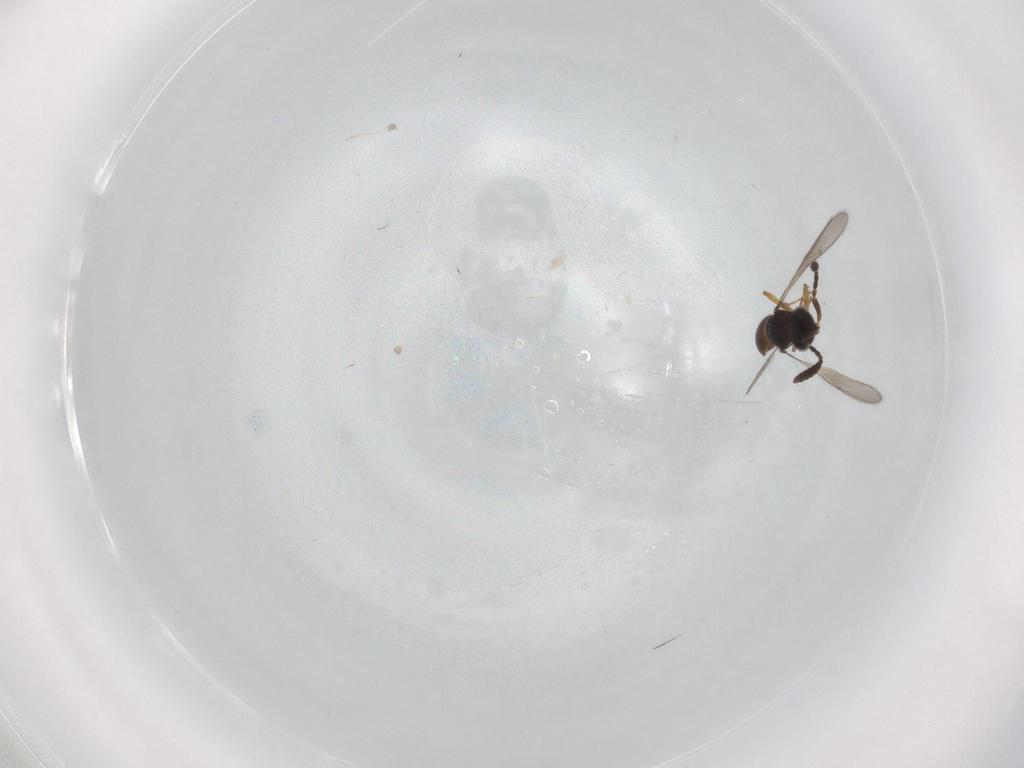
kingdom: Animalia
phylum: Arthropoda
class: Insecta
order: Hymenoptera
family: Scelionidae
